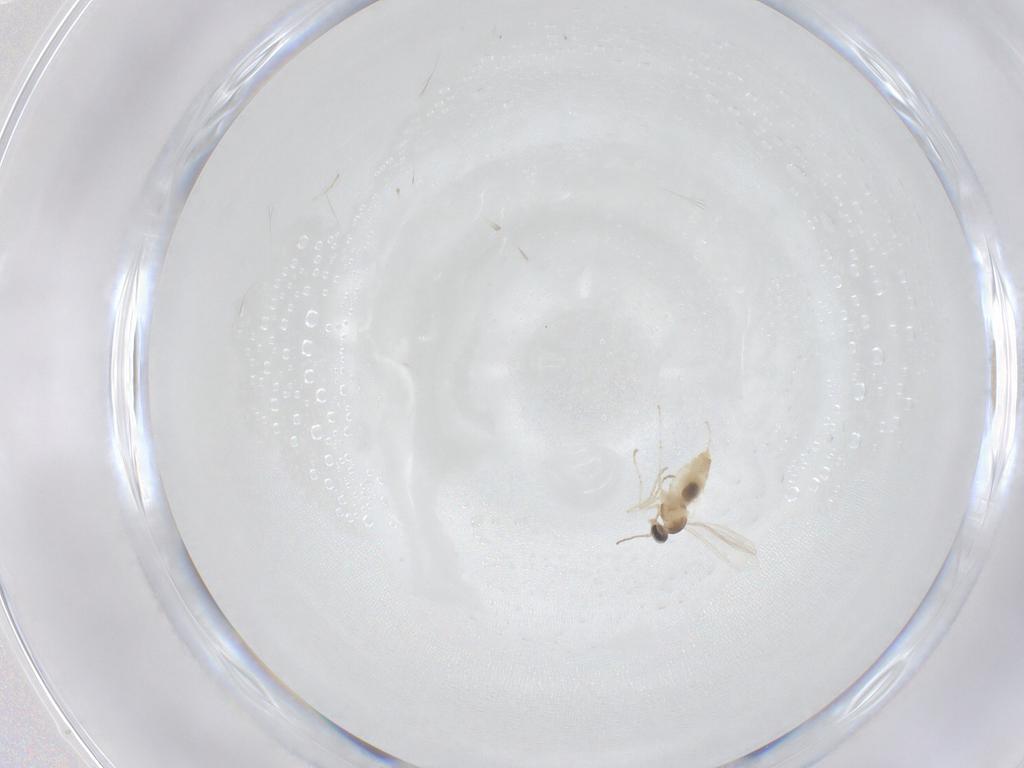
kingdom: Animalia
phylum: Arthropoda
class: Insecta
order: Diptera
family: Cecidomyiidae
